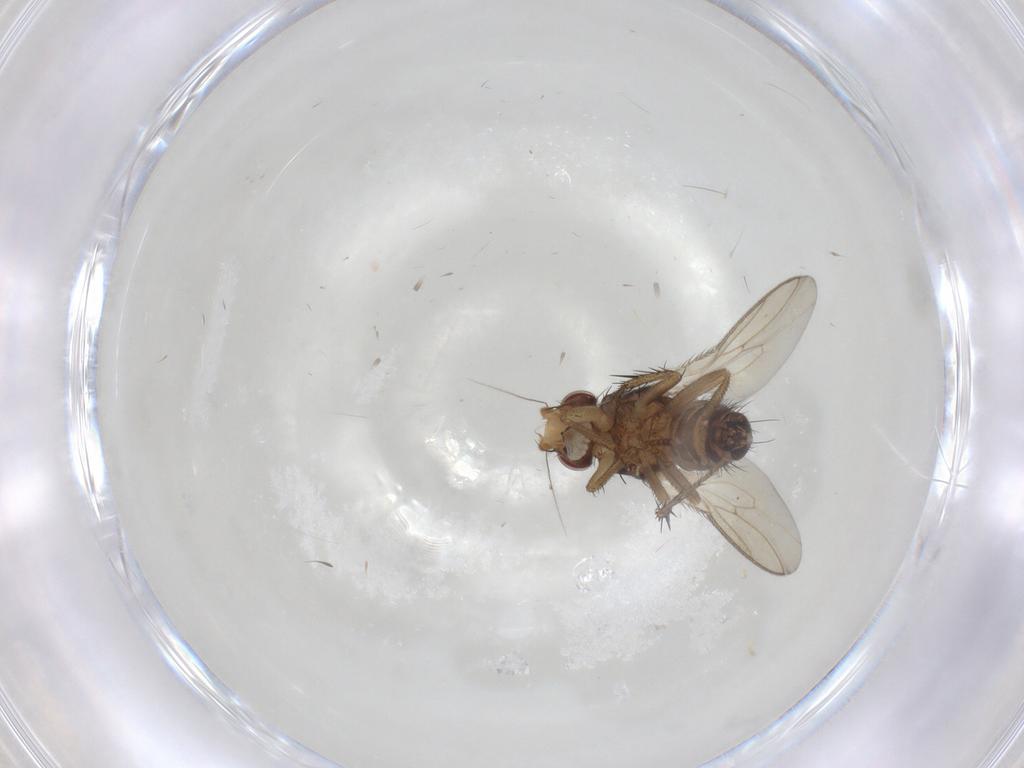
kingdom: Animalia
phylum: Arthropoda
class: Insecta
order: Diptera
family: Sphaeroceridae
